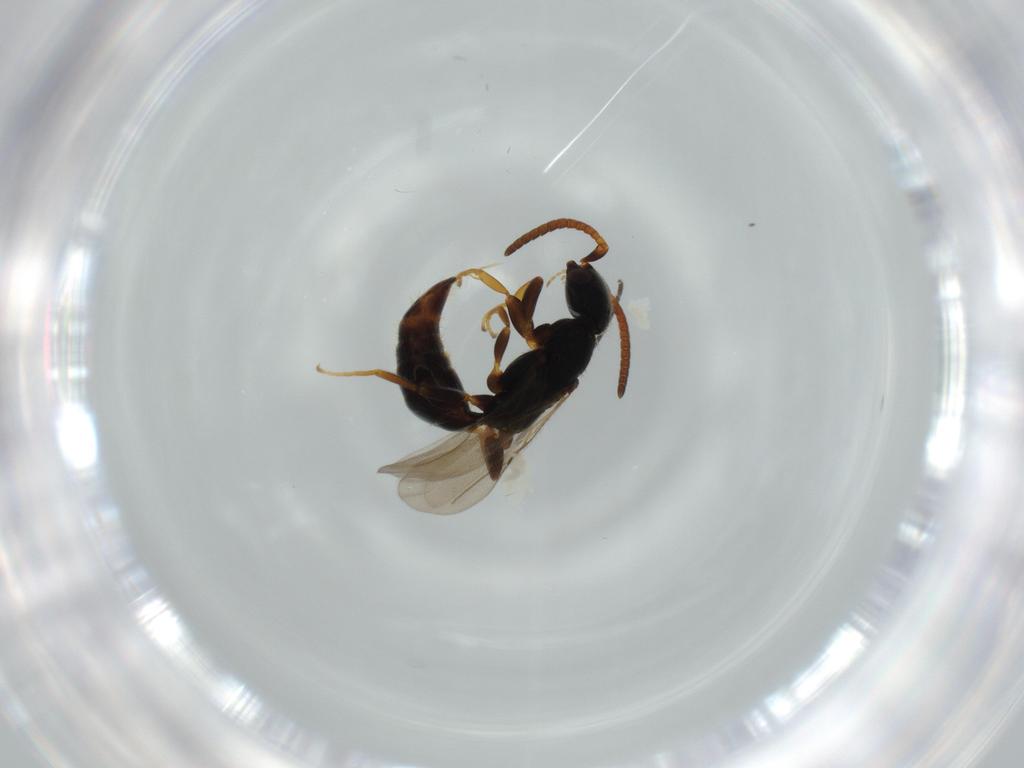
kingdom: Animalia
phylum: Arthropoda
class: Insecta
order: Hymenoptera
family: Bethylidae
